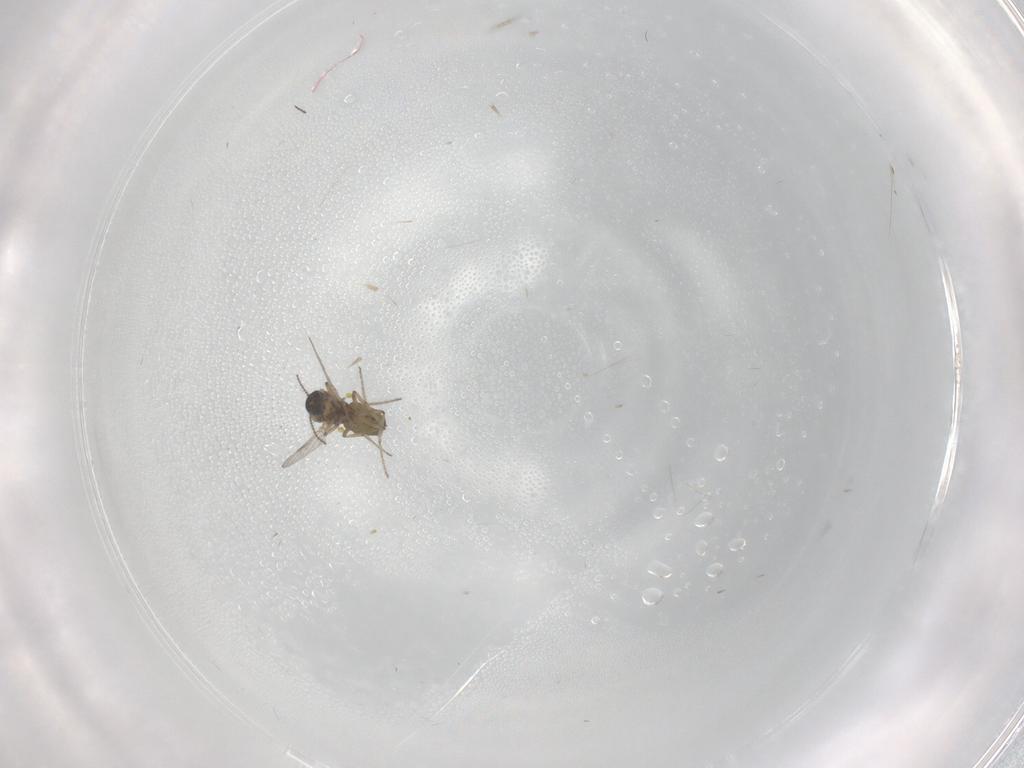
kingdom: Animalia
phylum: Arthropoda
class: Insecta
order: Diptera
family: Ceratopogonidae
